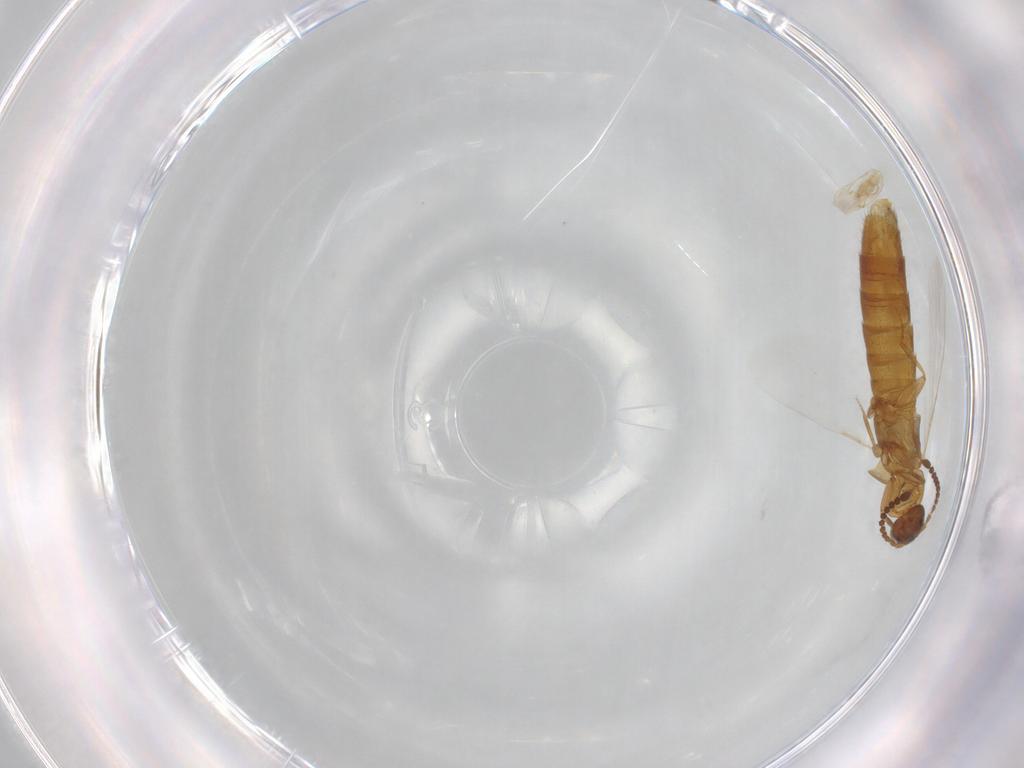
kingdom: Animalia
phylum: Arthropoda
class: Insecta
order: Coleoptera
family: Staphylinidae
